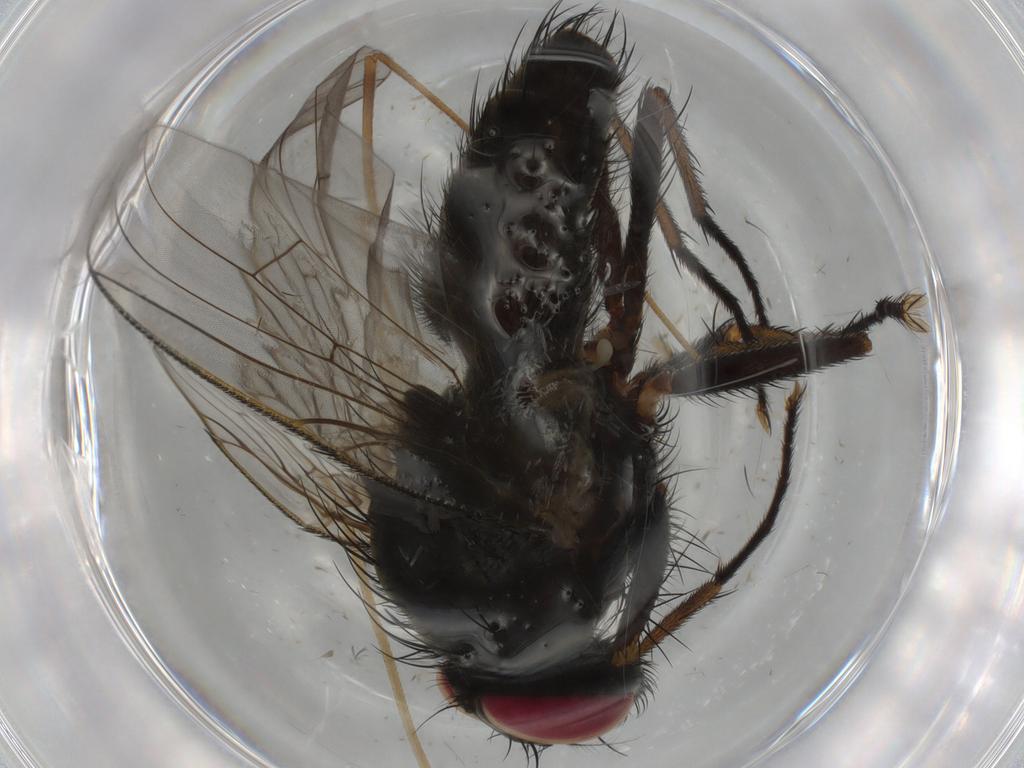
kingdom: Animalia
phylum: Arthropoda
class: Insecta
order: Diptera
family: Muscidae
